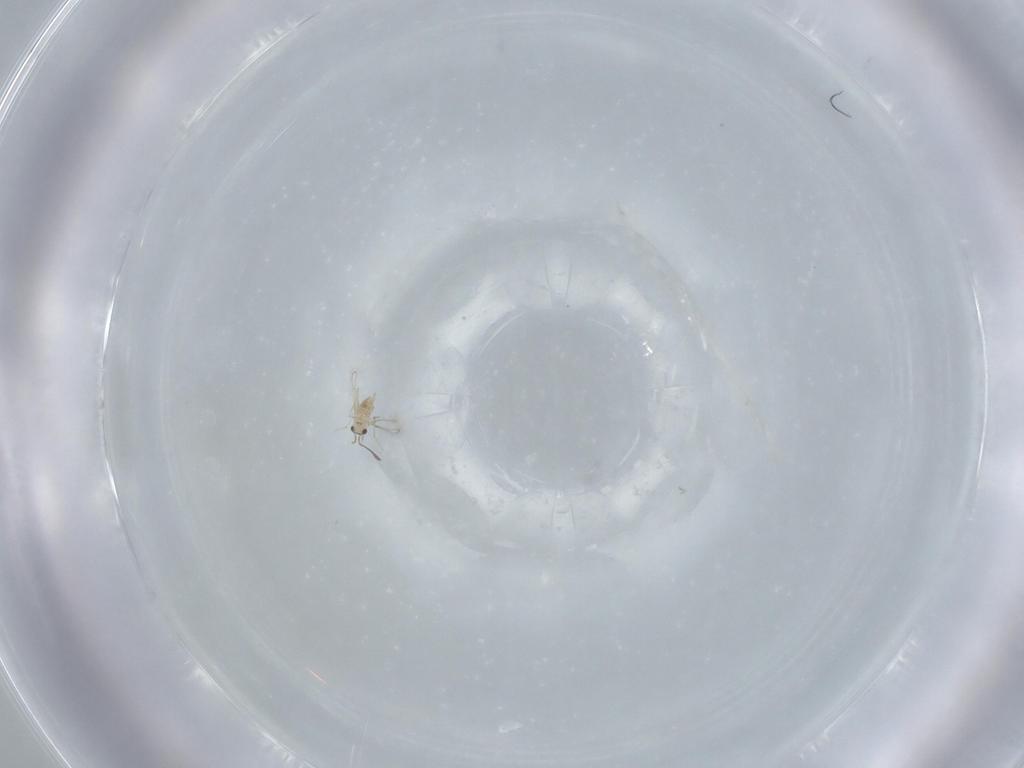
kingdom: Animalia
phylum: Arthropoda
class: Insecta
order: Hymenoptera
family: Mymaridae
